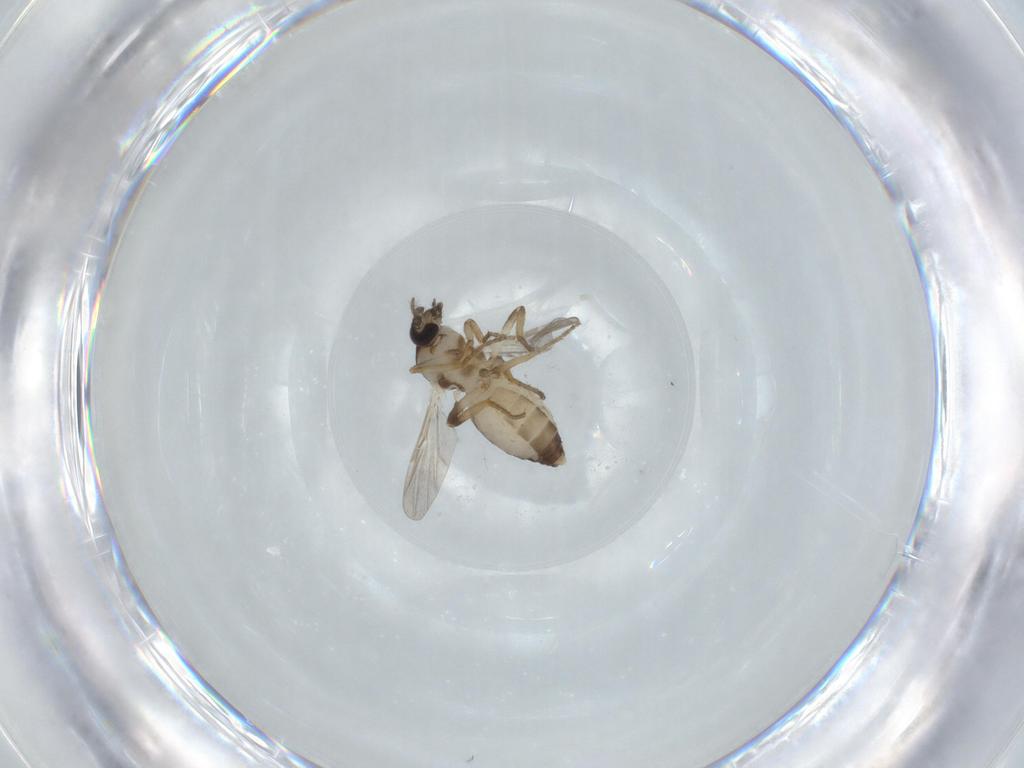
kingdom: Animalia
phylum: Arthropoda
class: Insecta
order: Diptera
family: Ceratopogonidae
